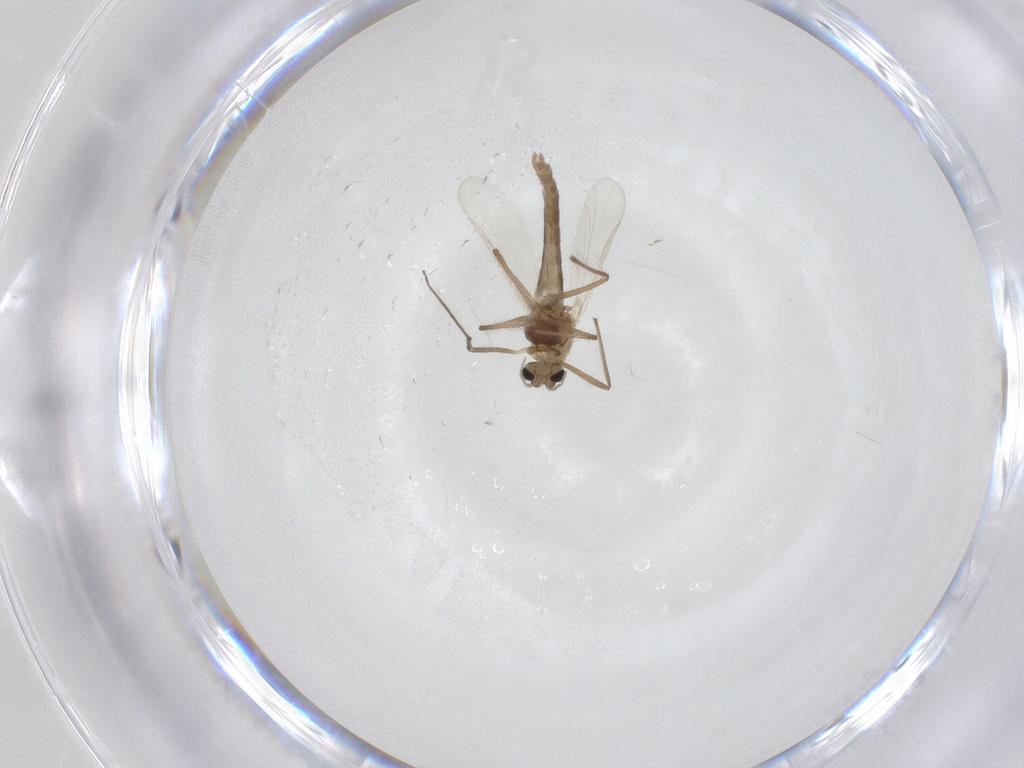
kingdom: Animalia
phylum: Arthropoda
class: Insecta
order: Diptera
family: Chironomidae
